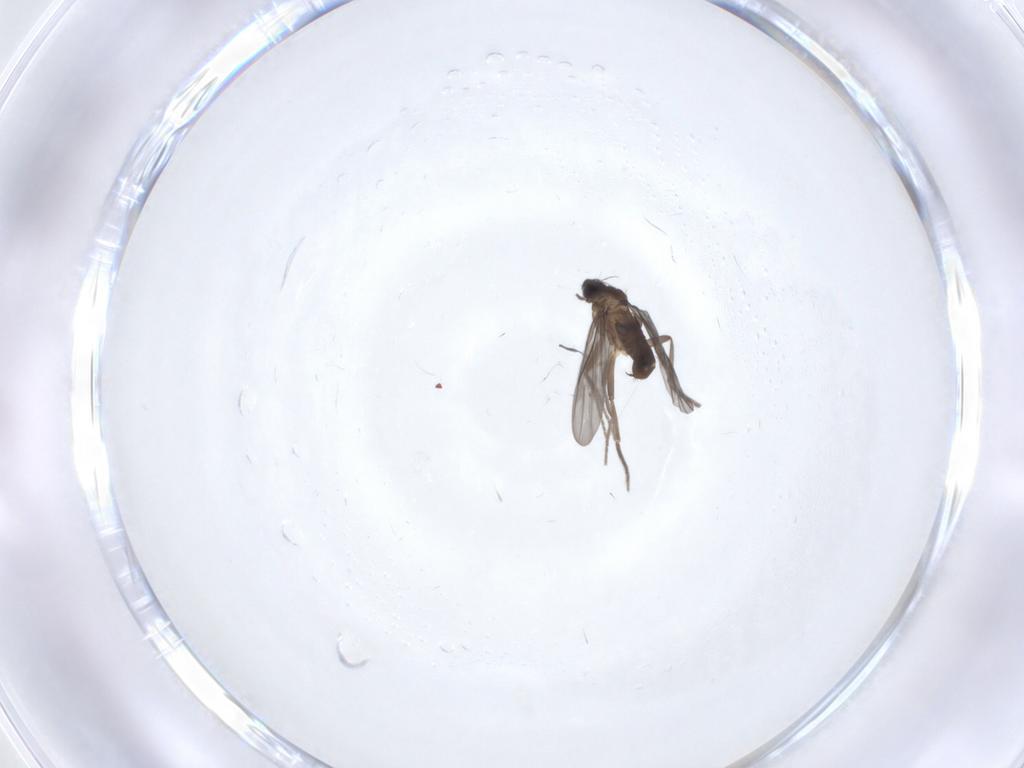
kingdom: Animalia
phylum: Arthropoda
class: Insecta
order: Diptera
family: Phoridae
